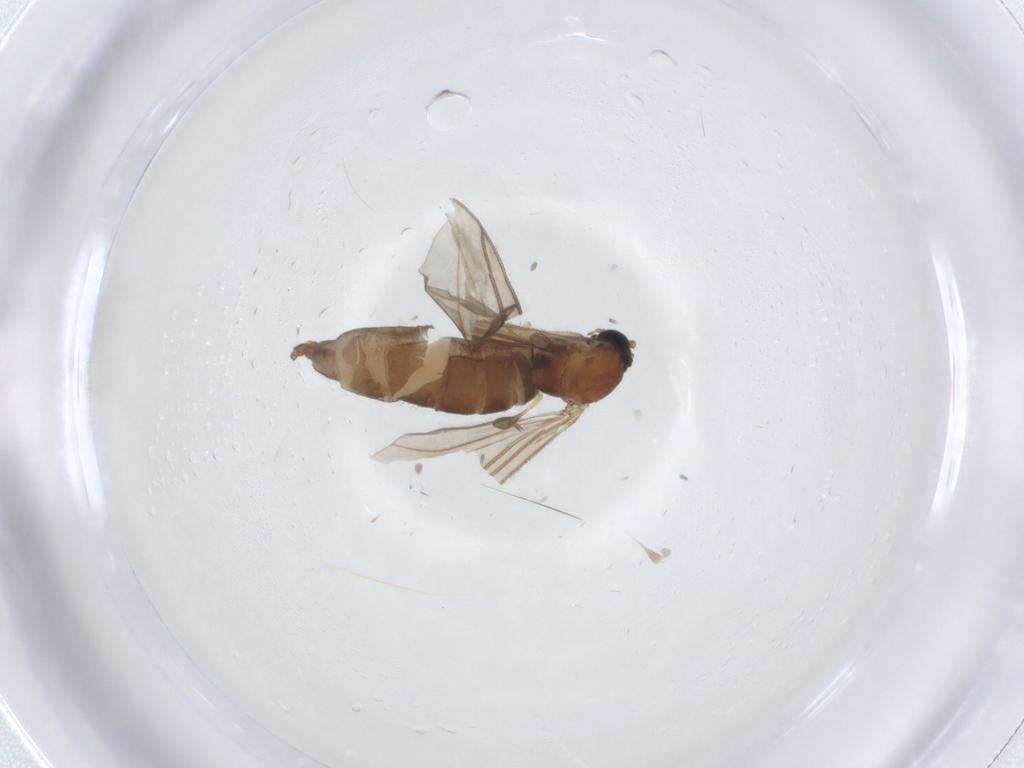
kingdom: Animalia
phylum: Arthropoda
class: Insecta
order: Diptera
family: Sciaridae
